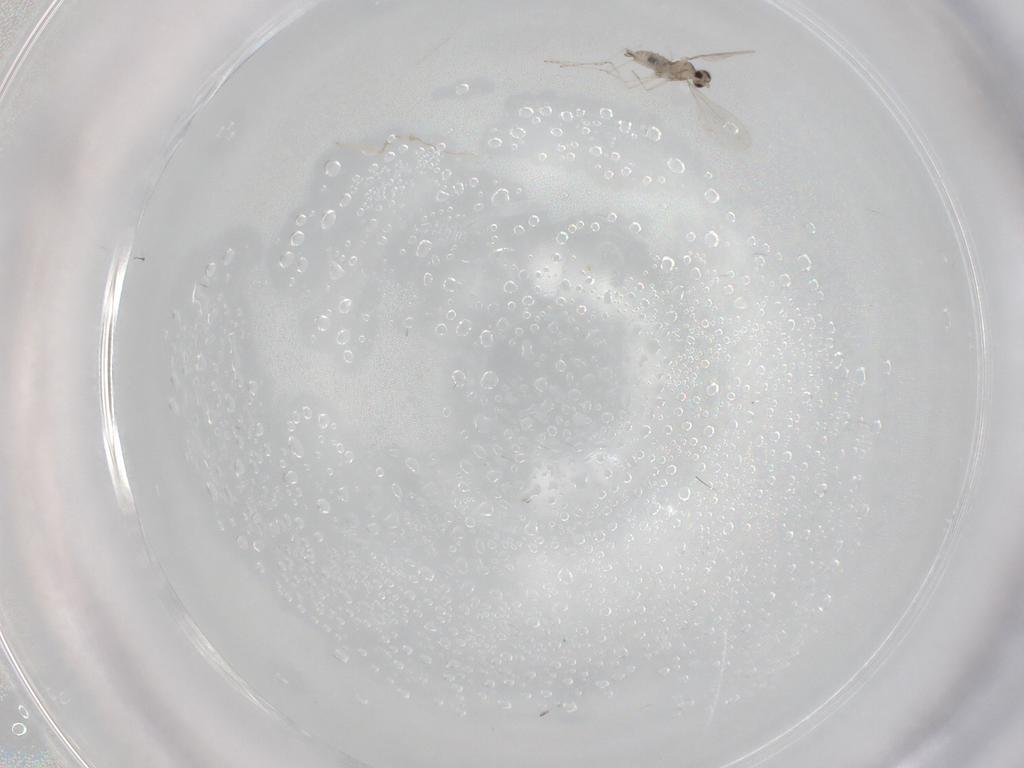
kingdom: Animalia
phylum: Arthropoda
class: Insecta
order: Diptera
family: Cecidomyiidae
